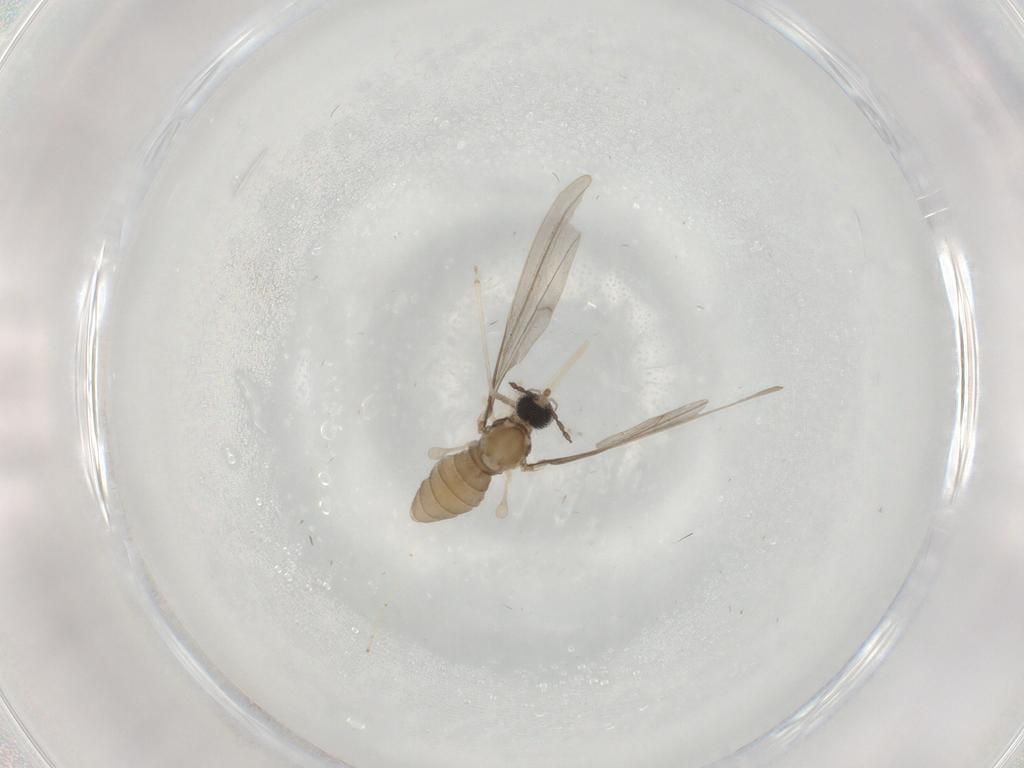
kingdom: Animalia
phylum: Arthropoda
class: Insecta
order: Diptera
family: Cecidomyiidae
